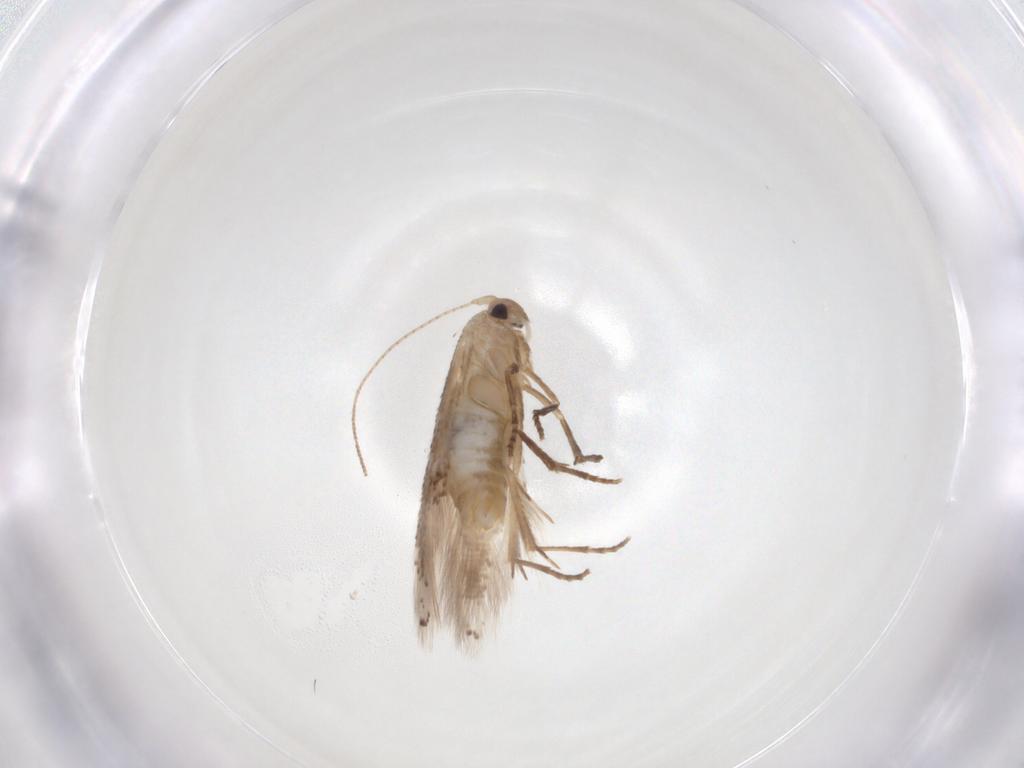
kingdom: Animalia
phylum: Arthropoda
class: Insecta
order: Lepidoptera
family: Bucculatricidae
